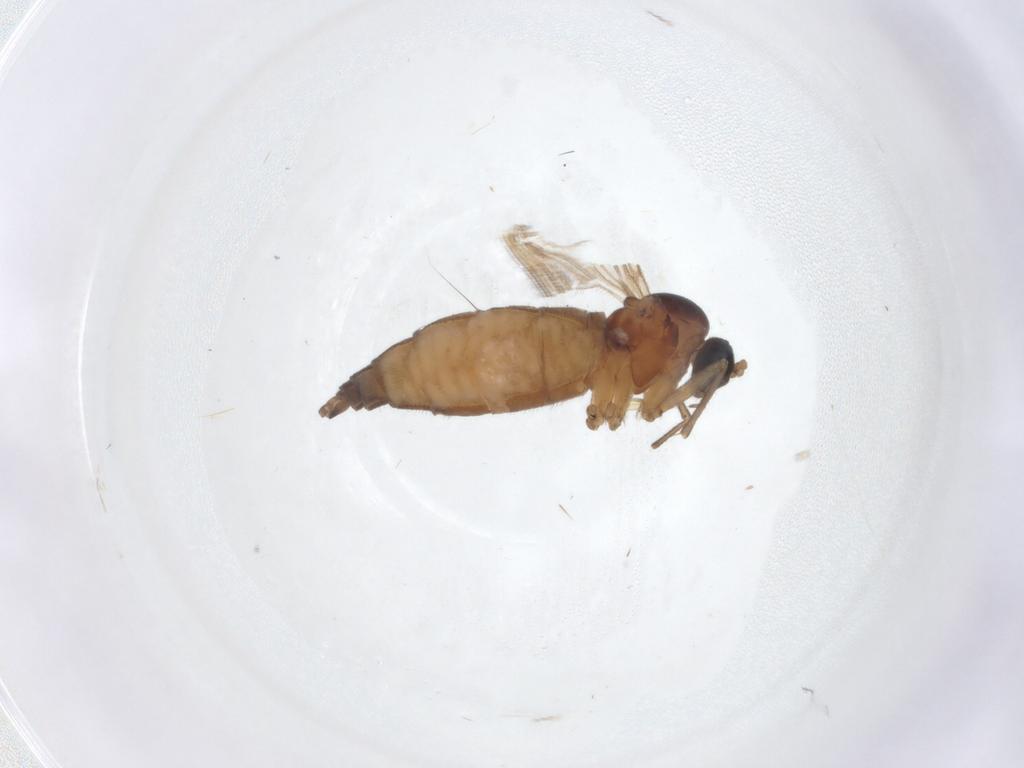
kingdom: Animalia
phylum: Arthropoda
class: Insecta
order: Diptera
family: Sciaridae
